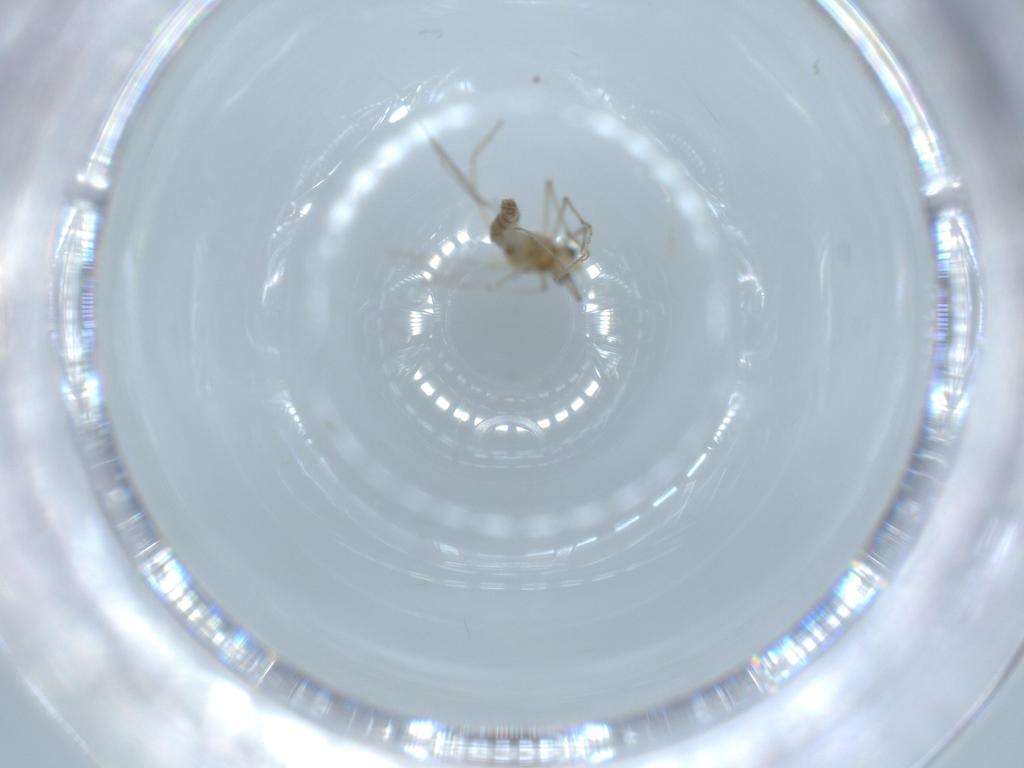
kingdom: Animalia
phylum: Arthropoda
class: Insecta
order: Diptera
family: Chironomidae
